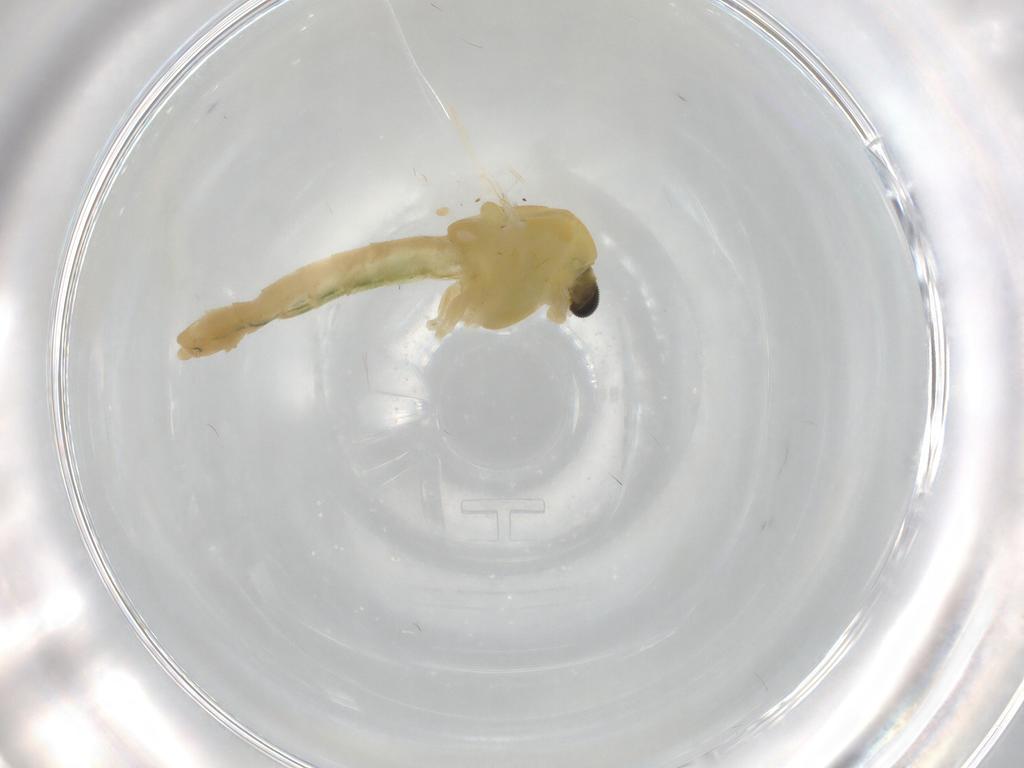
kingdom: Animalia
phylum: Arthropoda
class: Insecta
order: Diptera
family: Chironomidae
